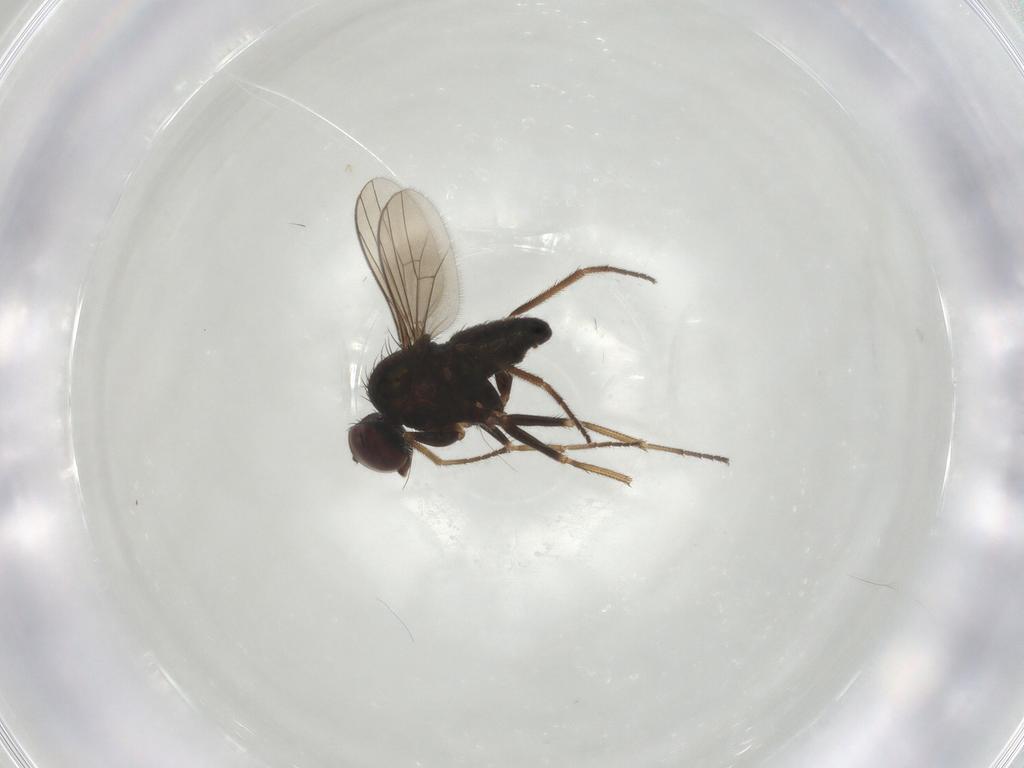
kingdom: Animalia
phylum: Arthropoda
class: Insecta
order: Diptera
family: Dolichopodidae
